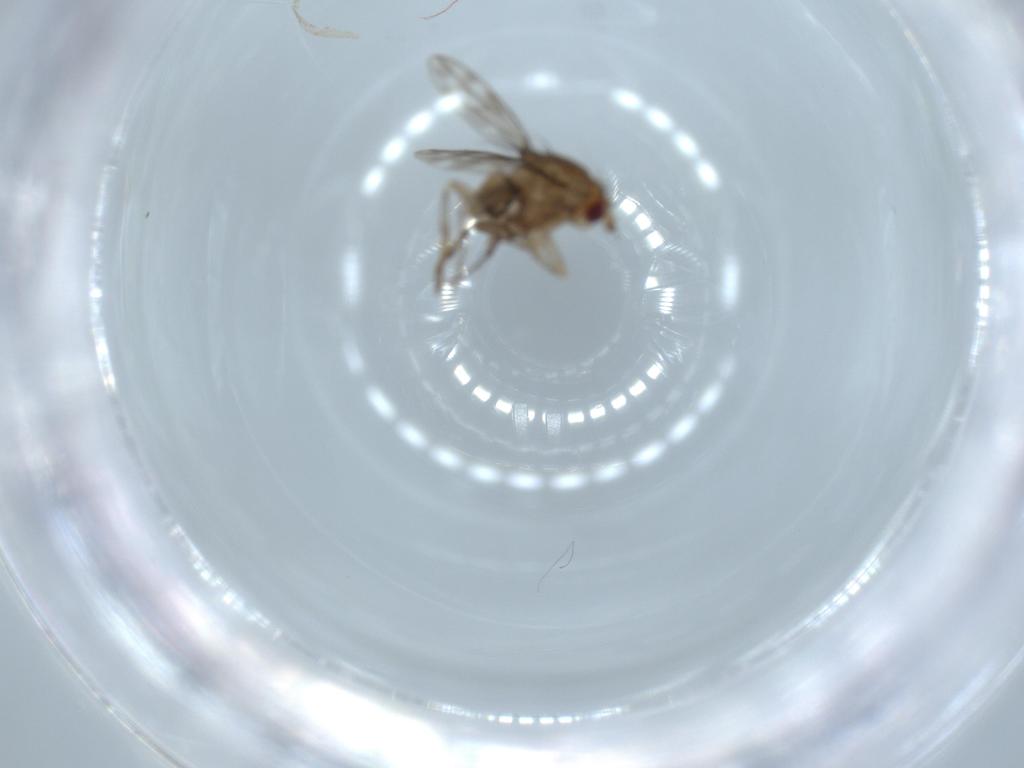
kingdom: Animalia
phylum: Arthropoda
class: Insecta
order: Diptera
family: Sphaeroceridae
